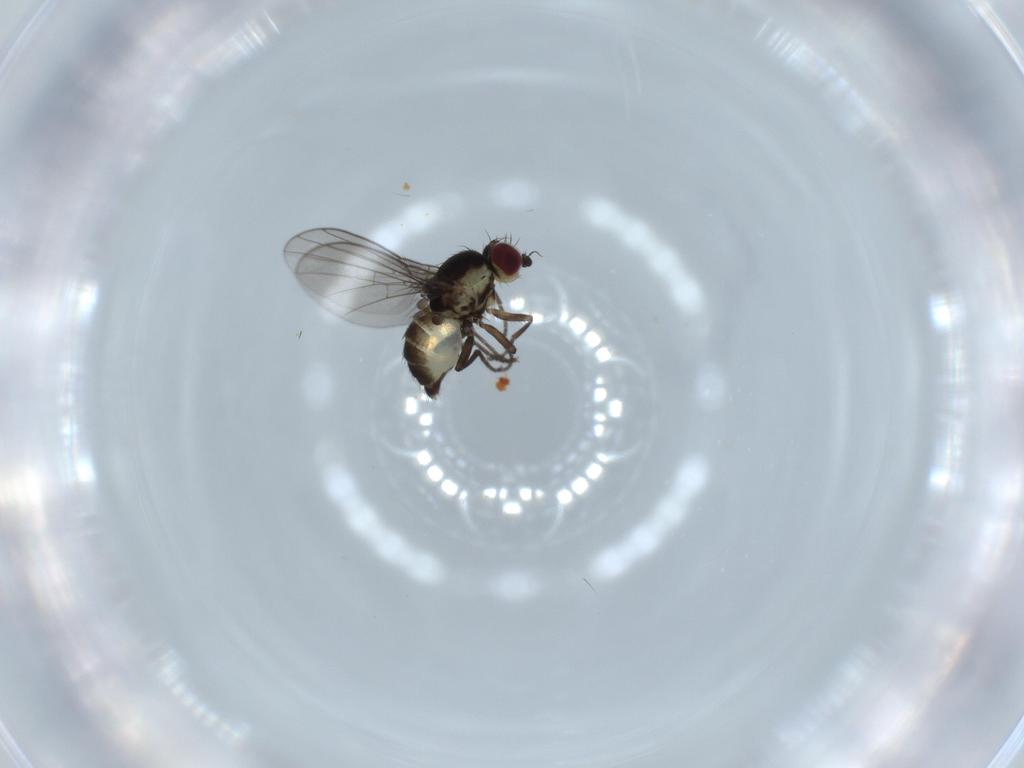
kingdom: Animalia
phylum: Arthropoda
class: Insecta
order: Diptera
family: Agromyzidae
